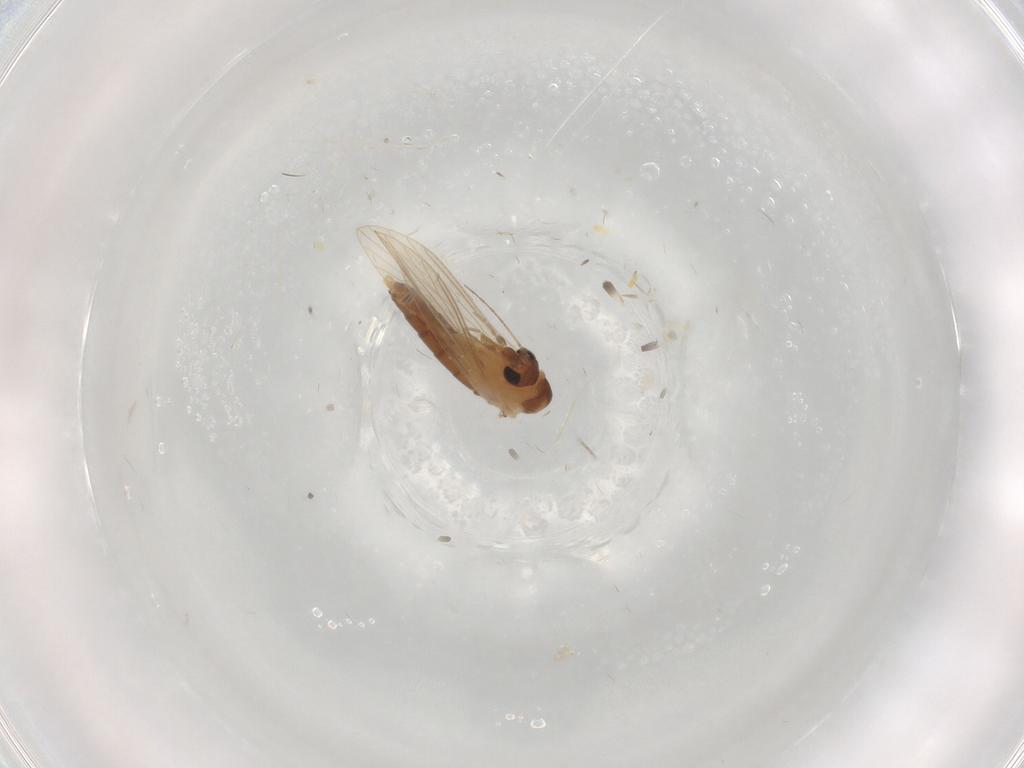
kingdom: Animalia
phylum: Arthropoda
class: Insecta
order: Diptera
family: Psychodidae
